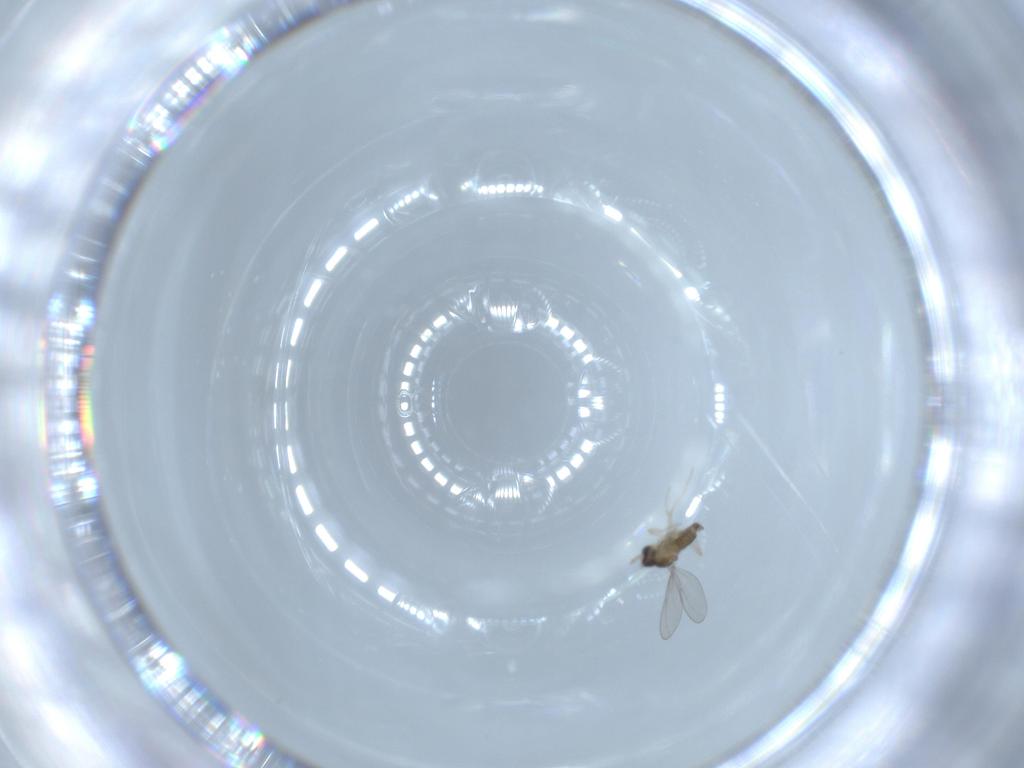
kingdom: Animalia
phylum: Arthropoda
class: Insecta
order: Diptera
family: Cecidomyiidae
